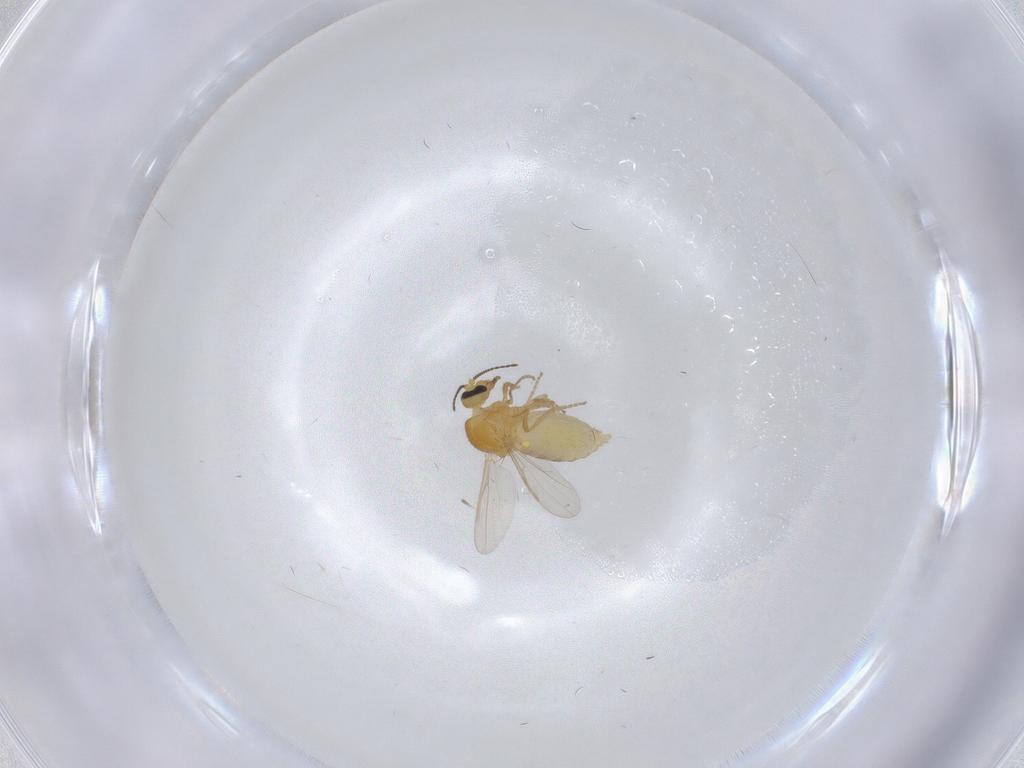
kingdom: Animalia
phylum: Arthropoda
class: Insecta
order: Diptera
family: Ceratopogonidae
